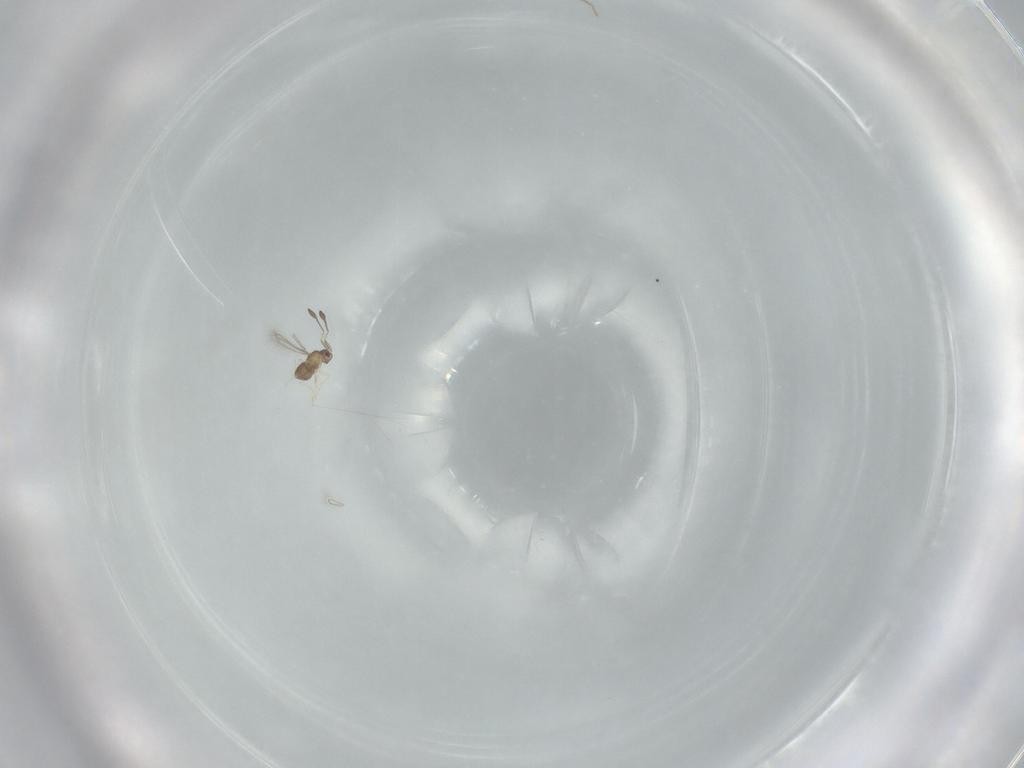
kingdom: Animalia
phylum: Arthropoda
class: Insecta
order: Hymenoptera
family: Mymaridae
